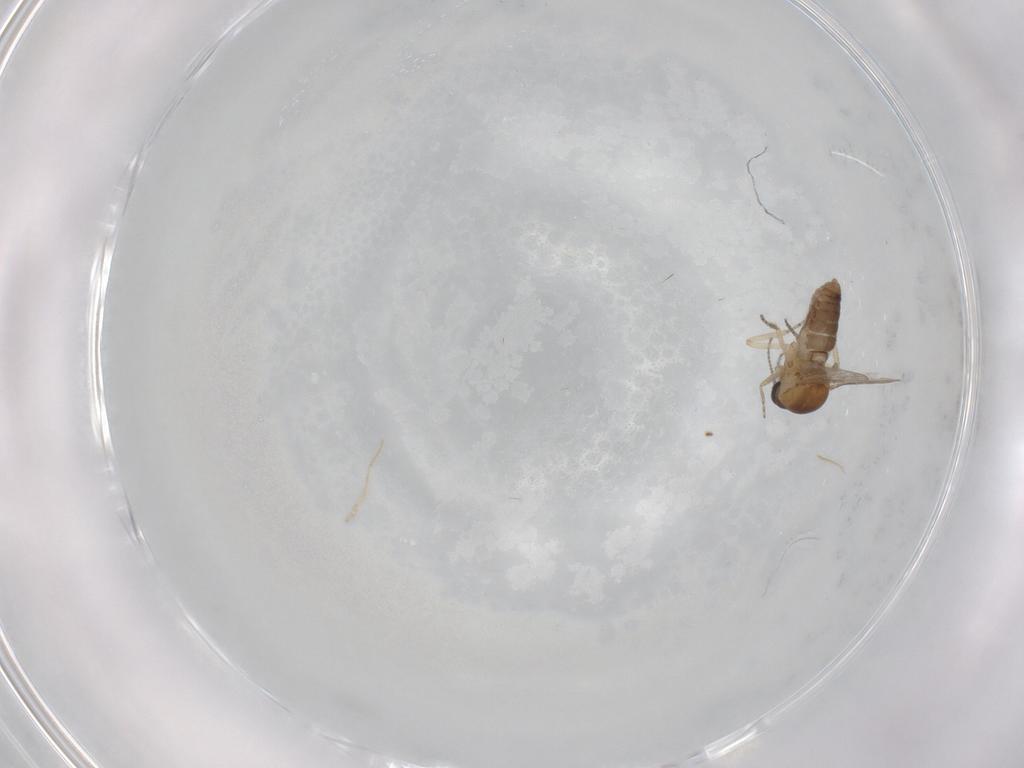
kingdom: Animalia
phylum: Arthropoda
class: Insecta
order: Diptera
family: Ceratopogonidae
